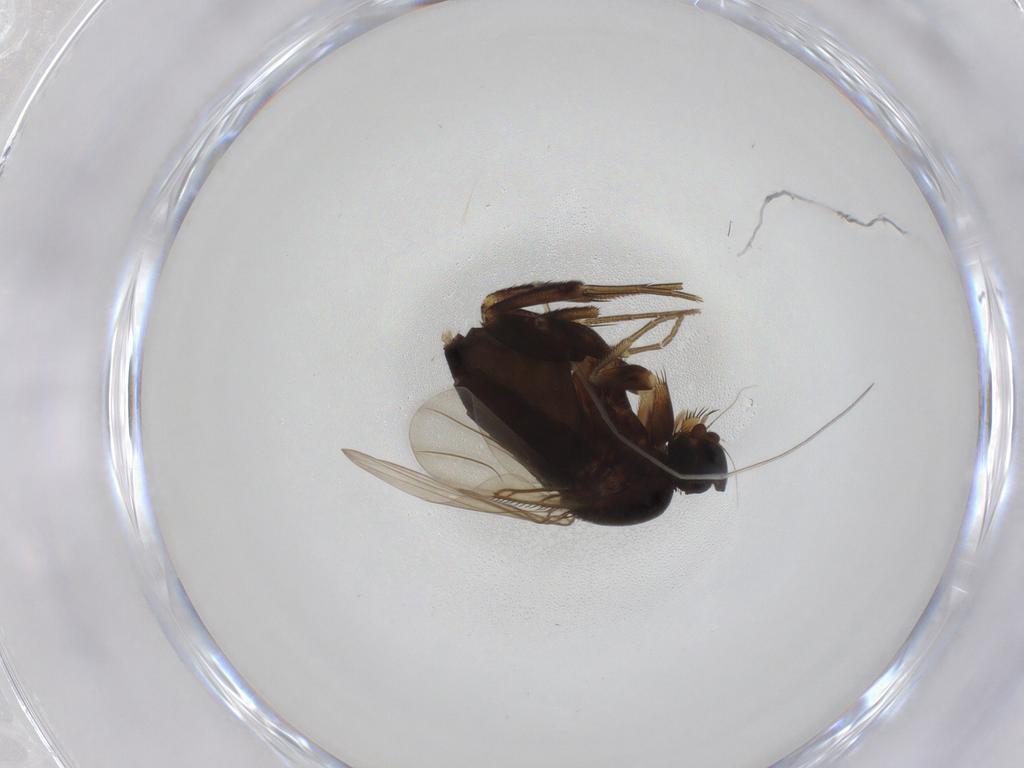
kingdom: Animalia
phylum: Arthropoda
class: Insecta
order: Diptera
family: Phoridae
